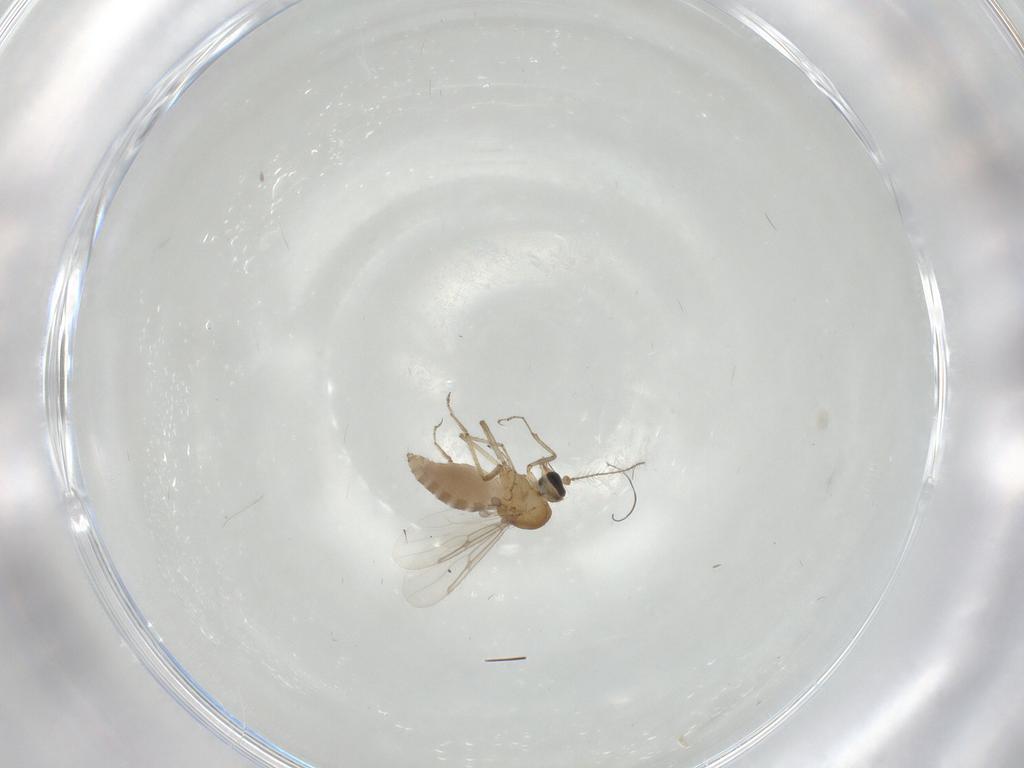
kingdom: Animalia
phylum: Arthropoda
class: Insecta
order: Diptera
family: Ceratopogonidae
